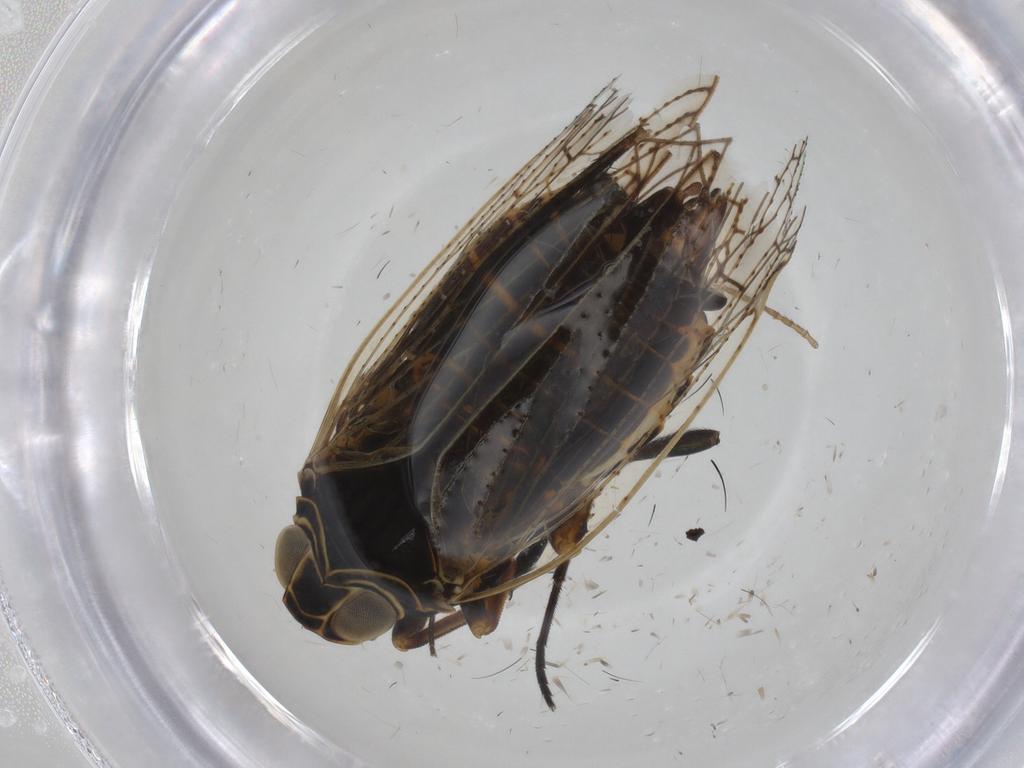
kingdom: Animalia
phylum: Arthropoda
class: Insecta
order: Hemiptera
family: Cixiidae
